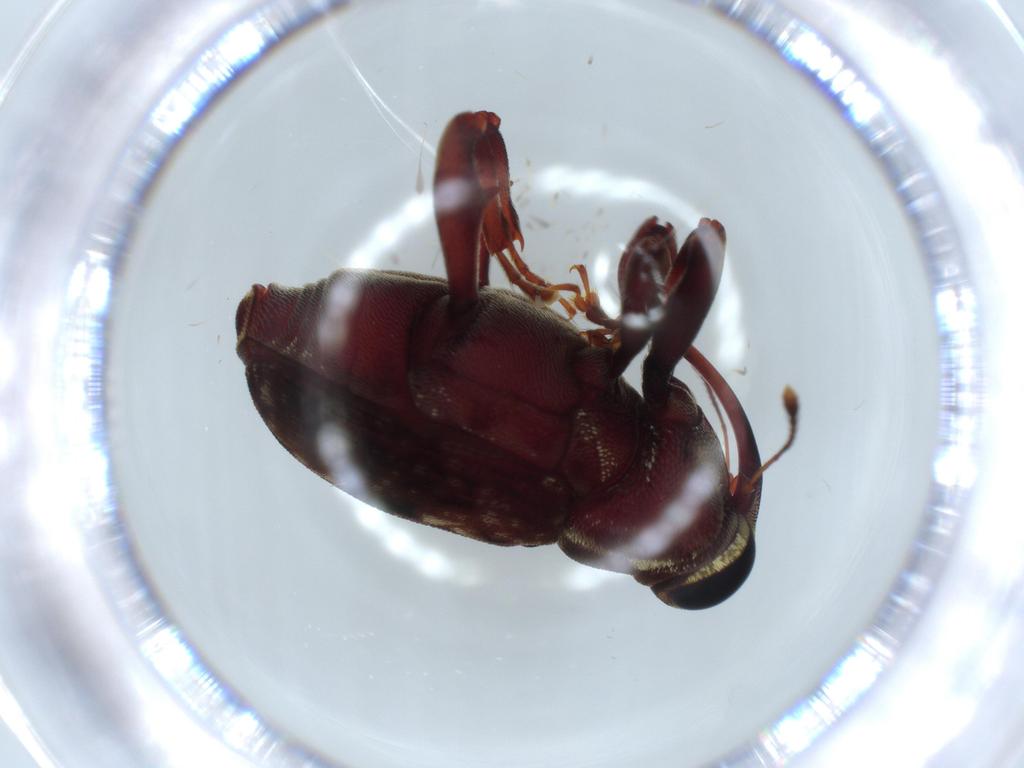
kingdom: Animalia
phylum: Arthropoda
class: Insecta
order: Coleoptera
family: Curculionidae
